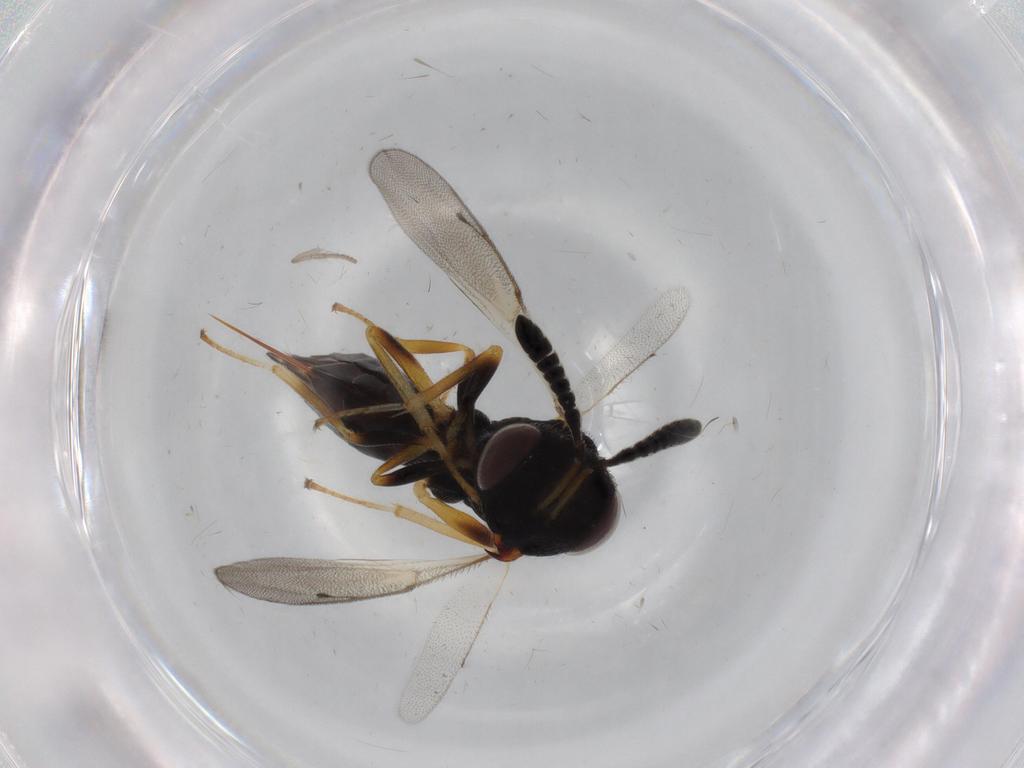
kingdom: Animalia
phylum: Arthropoda
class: Insecta
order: Hymenoptera
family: Pteromalidae
